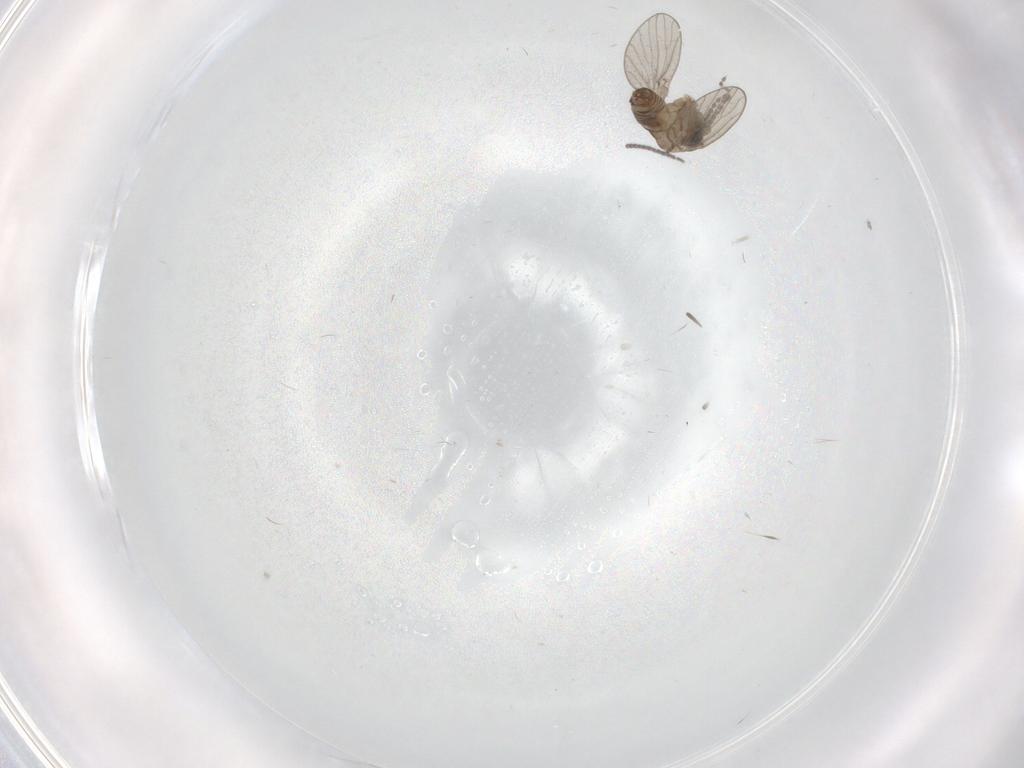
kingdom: Animalia
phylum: Arthropoda
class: Insecta
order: Diptera
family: Sciaridae
